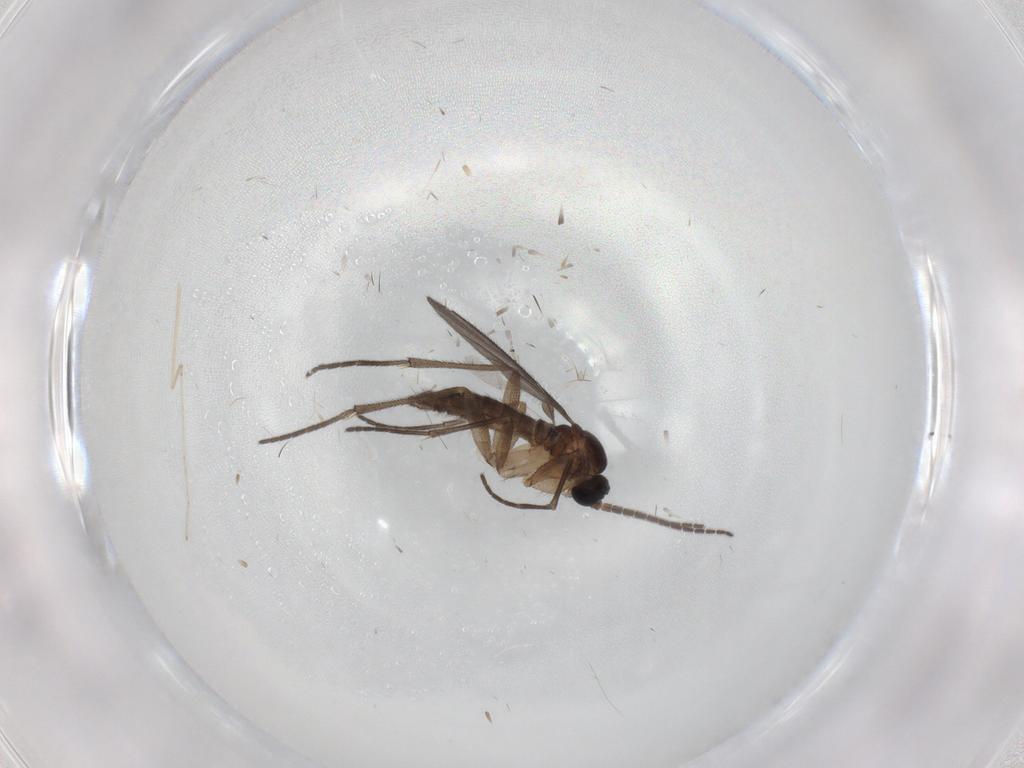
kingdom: Animalia
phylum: Arthropoda
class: Insecta
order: Diptera
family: Sciaridae
